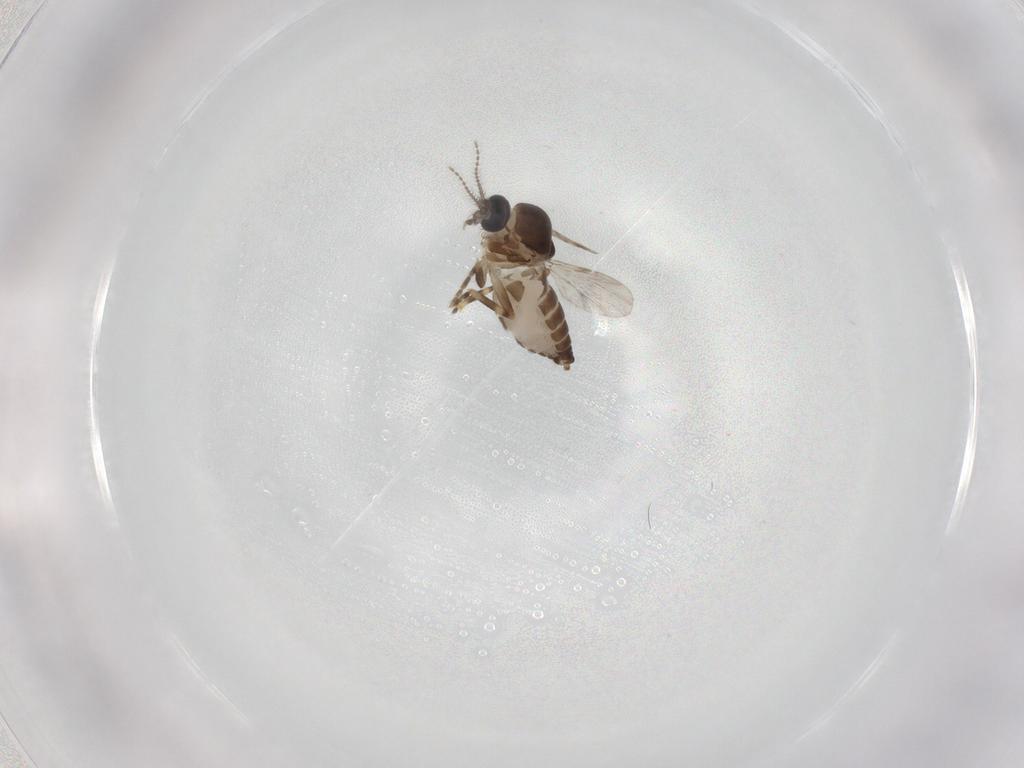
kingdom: Animalia
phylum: Arthropoda
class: Insecta
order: Diptera
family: Ceratopogonidae
